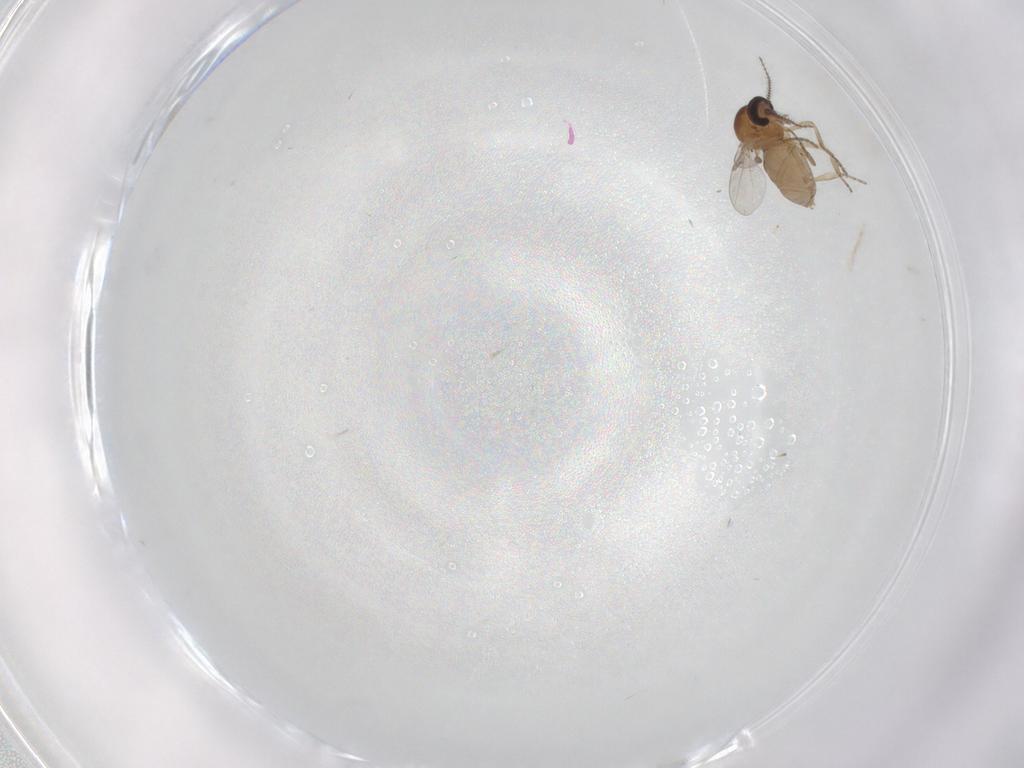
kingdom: Animalia
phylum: Arthropoda
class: Insecta
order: Diptera
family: Ceratopogonidae
